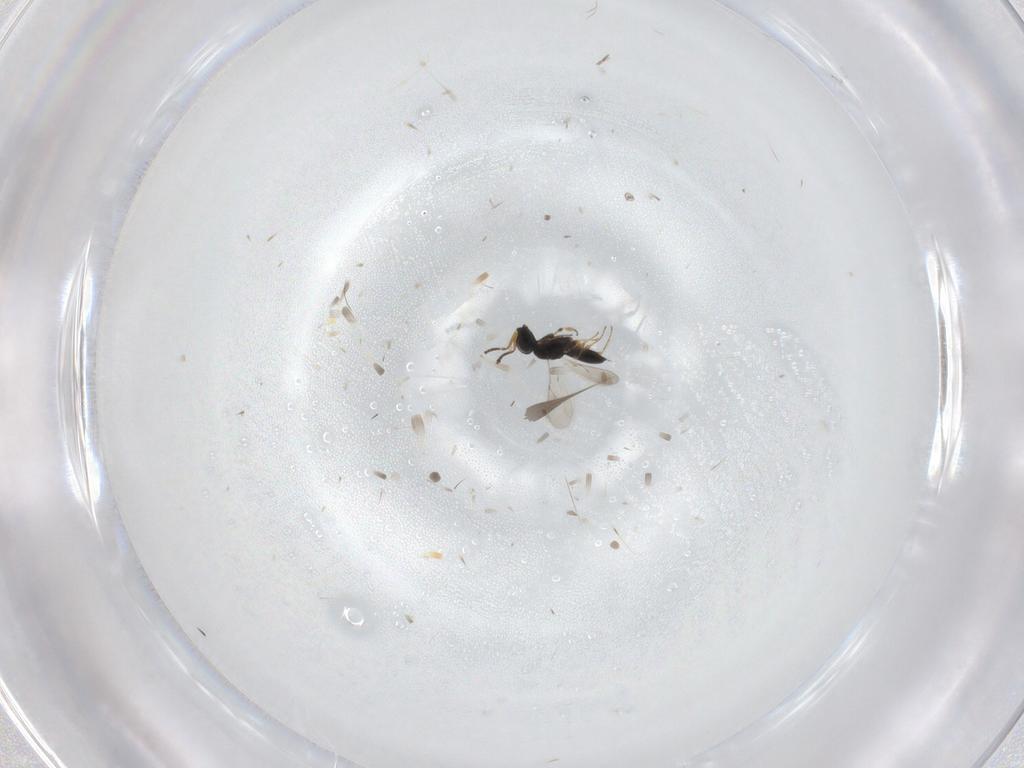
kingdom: Animalia
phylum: Arthropoda
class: Insecta
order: Hymenoptera
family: Scelionidae
